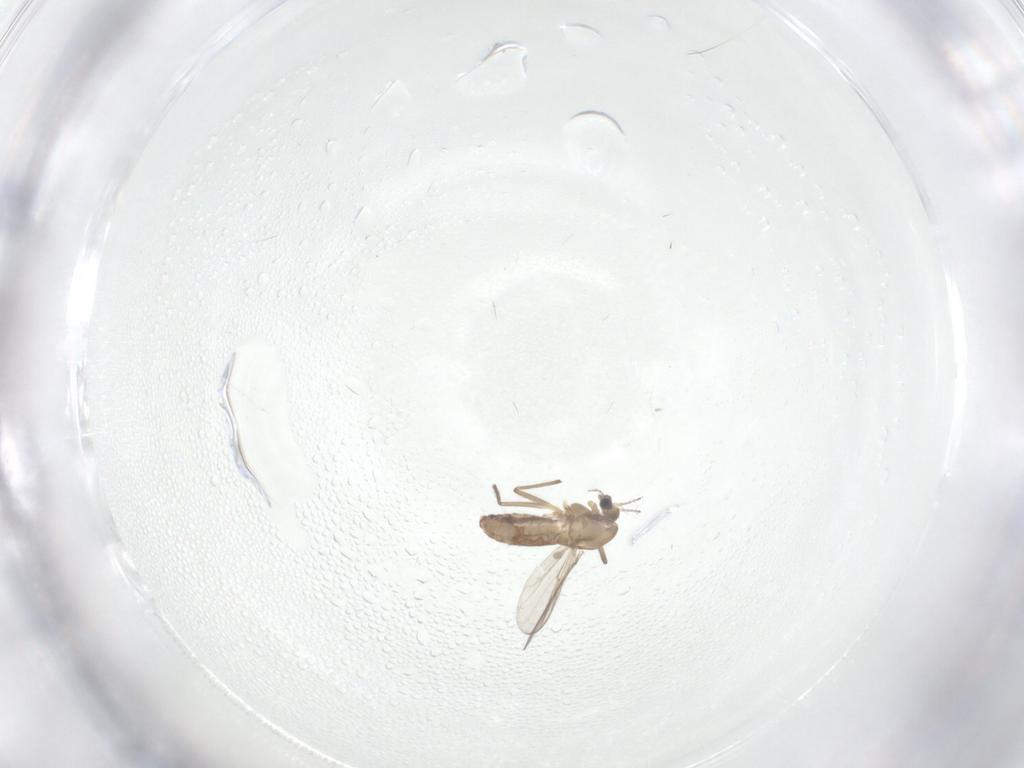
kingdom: Animalia
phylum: Arthropoda
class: Insecta
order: Diptera
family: Chironomidae
